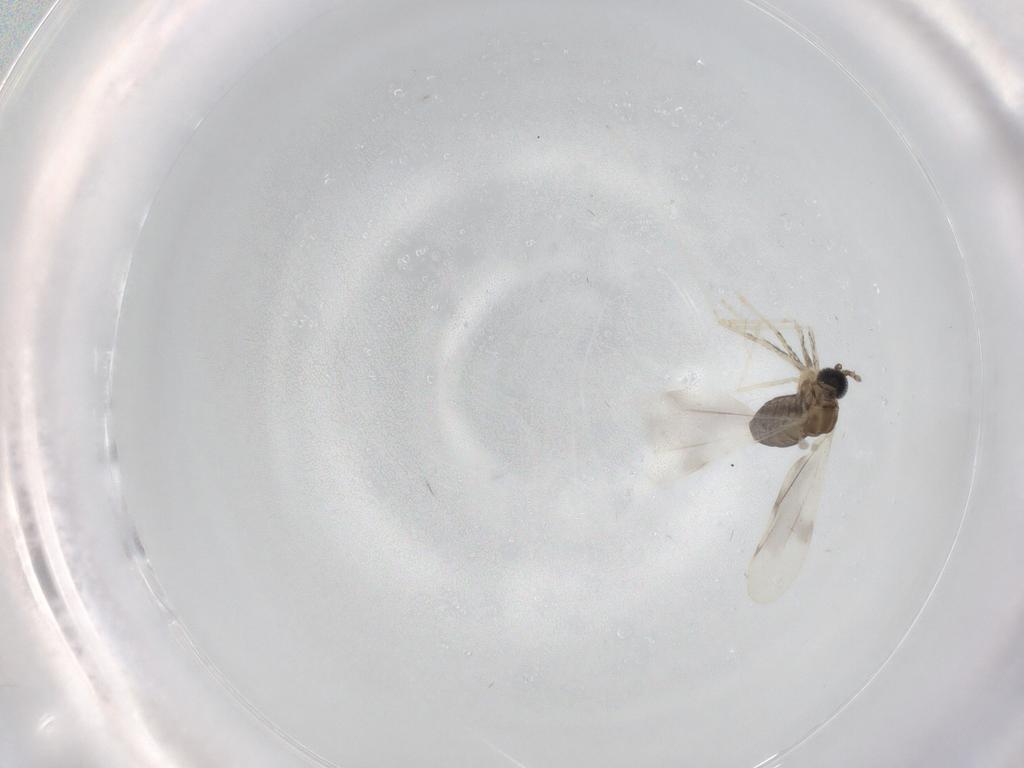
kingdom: Animalia
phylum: Arthropoda
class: Insecta
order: Diptera
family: Cecidomyiidae
